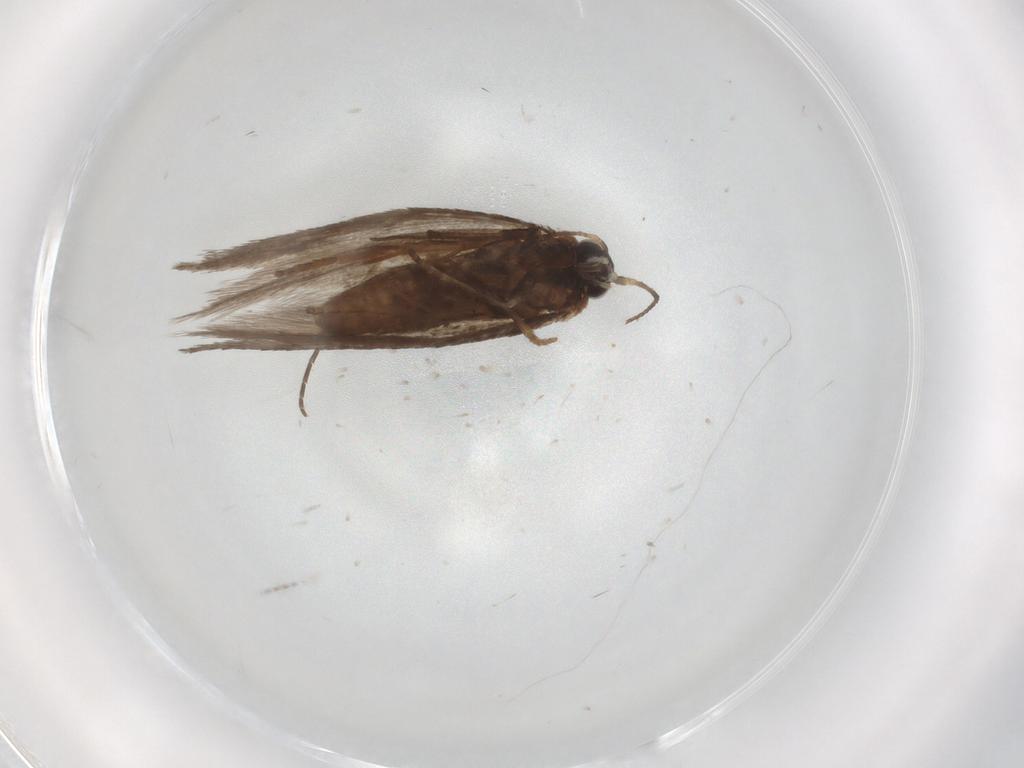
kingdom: Animalia
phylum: Arthropoda
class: Insecta
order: Lepidoptera
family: Nepticulidae
